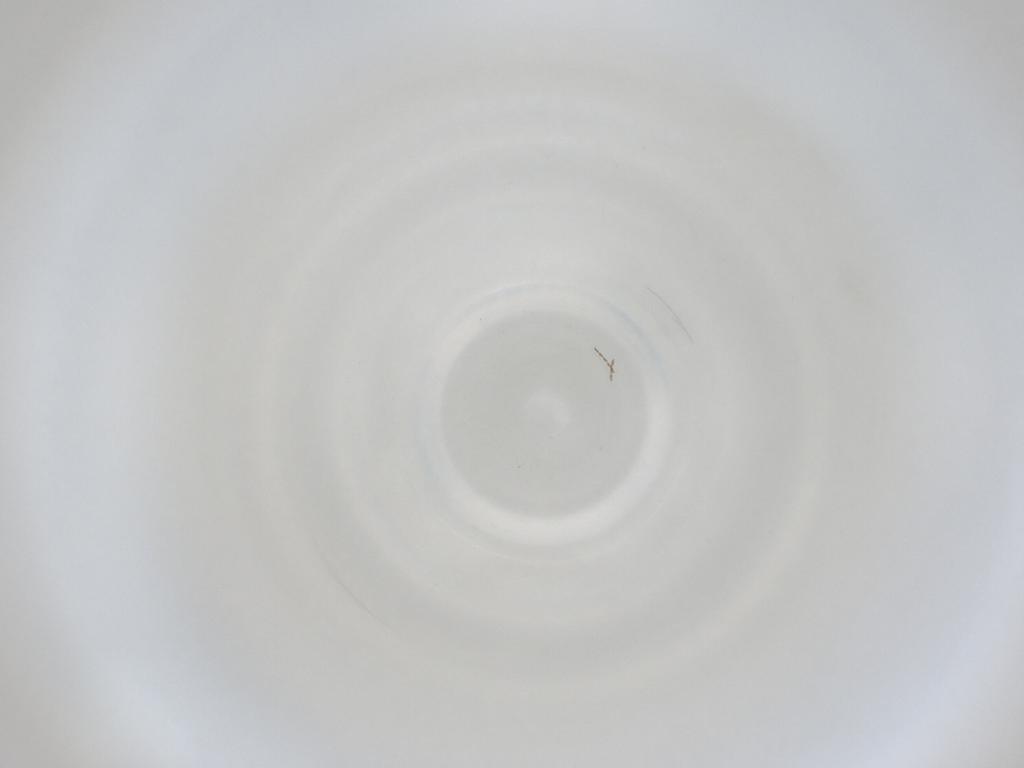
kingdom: Animalia
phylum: Arthropoda
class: Insecta
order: Diptera
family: Cecidomyiidae
